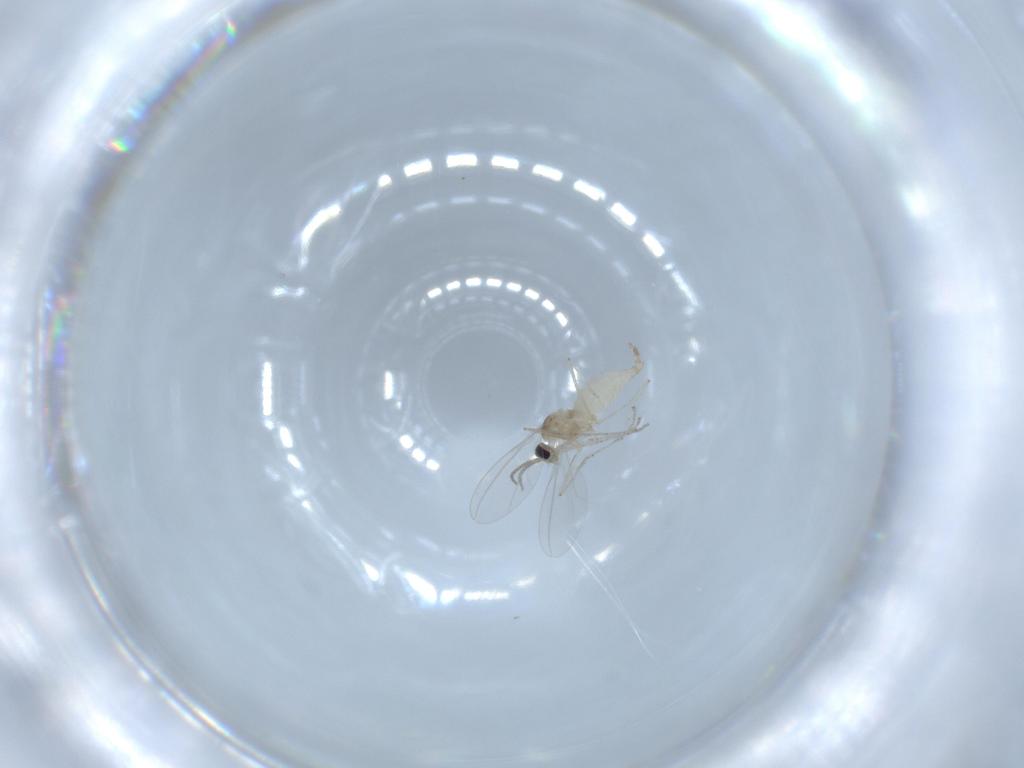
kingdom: Animalia
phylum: Arthropoda
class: Insecta
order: Diptera
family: Cecidomyiidae
